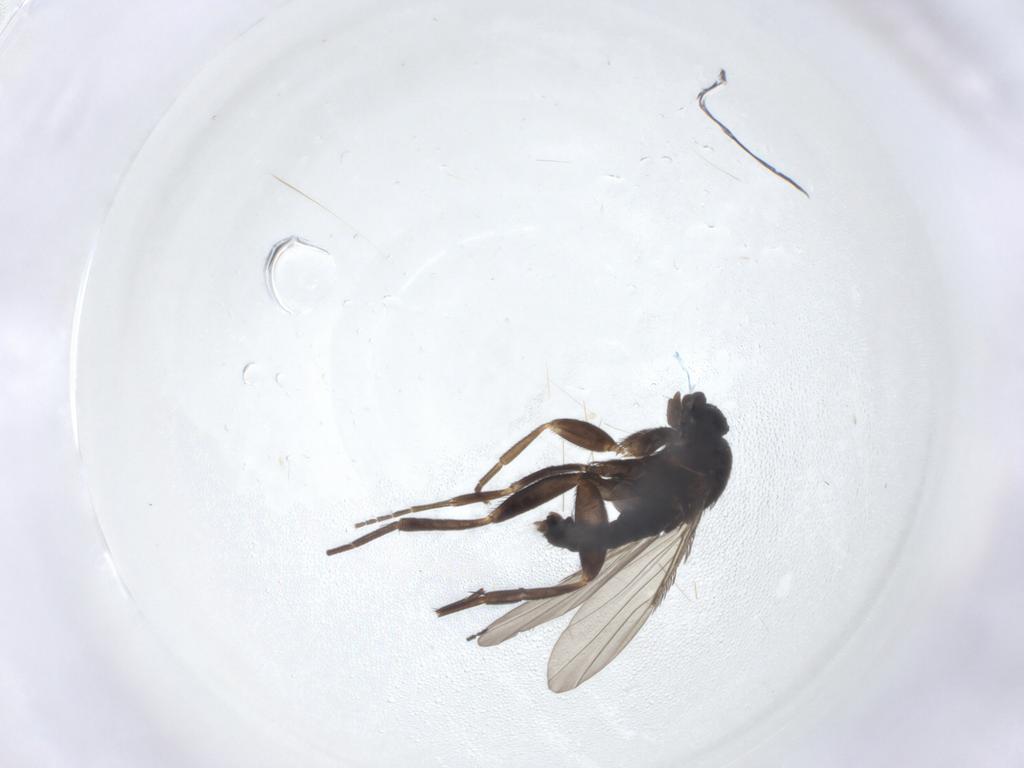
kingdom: Animalia
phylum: Arthropoda
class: Insecta
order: Diptera
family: Phoridae
